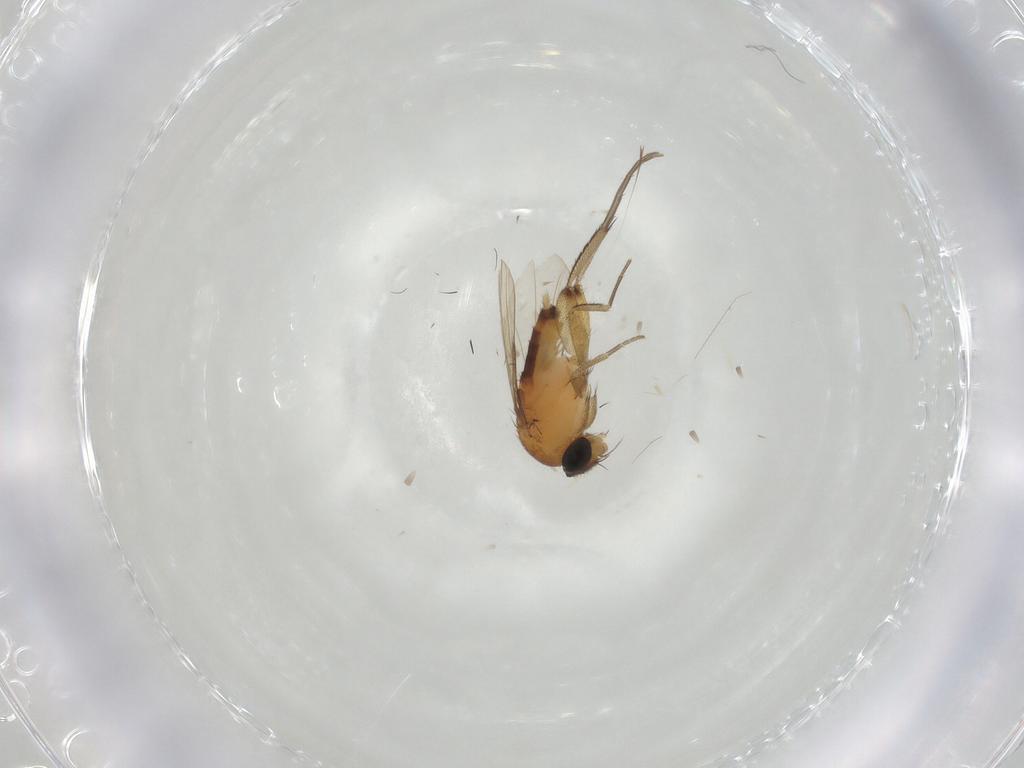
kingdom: Animalia
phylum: Arthropoda
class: Insecta
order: Diptera
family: Phoridae
